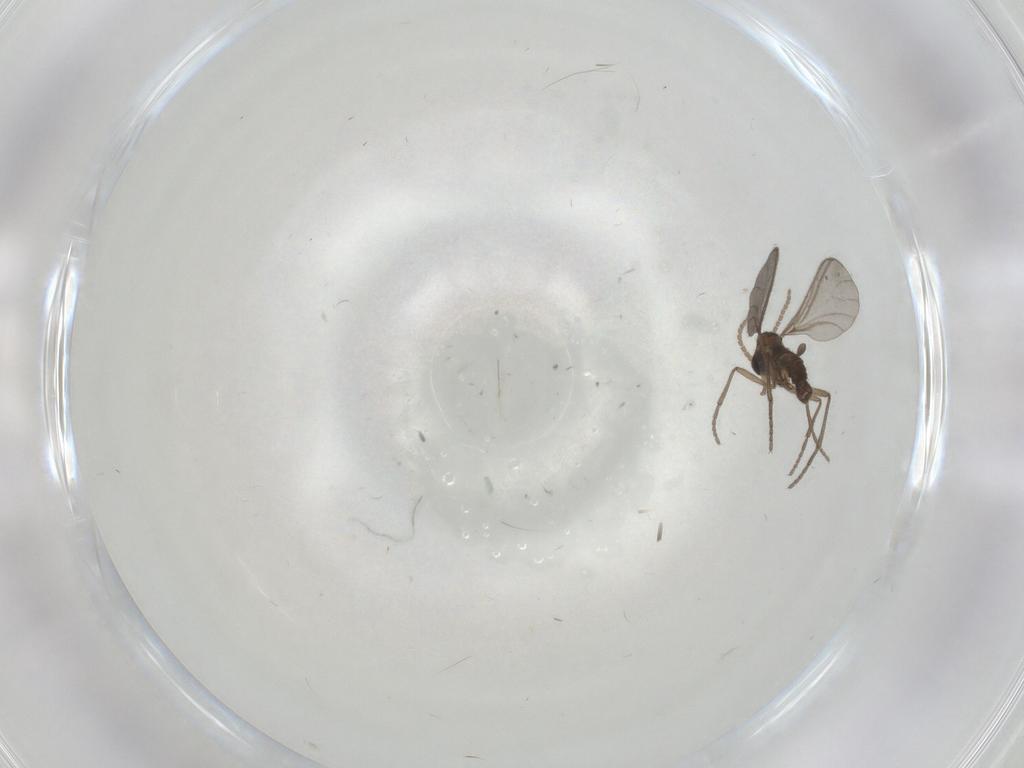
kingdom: Animalia
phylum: Arthropoda
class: Insecta
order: Diptera
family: Sciaridae
